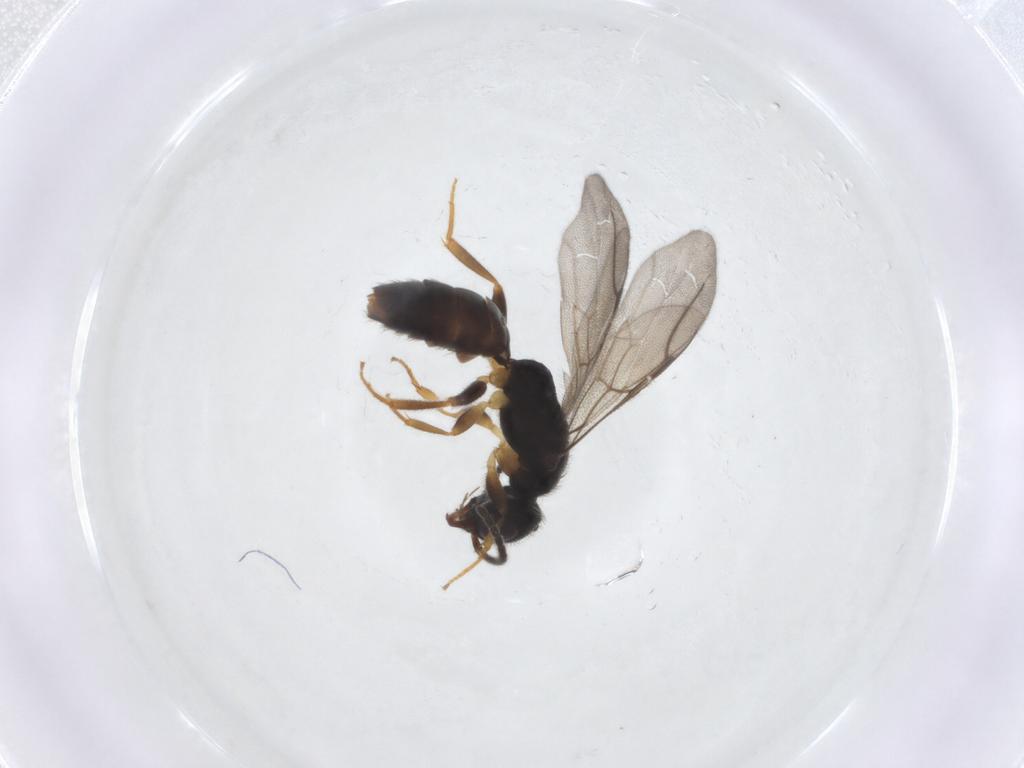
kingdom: Animalia
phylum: Arthropoda
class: Insecta
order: Hymenoptera
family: Bethylidae
